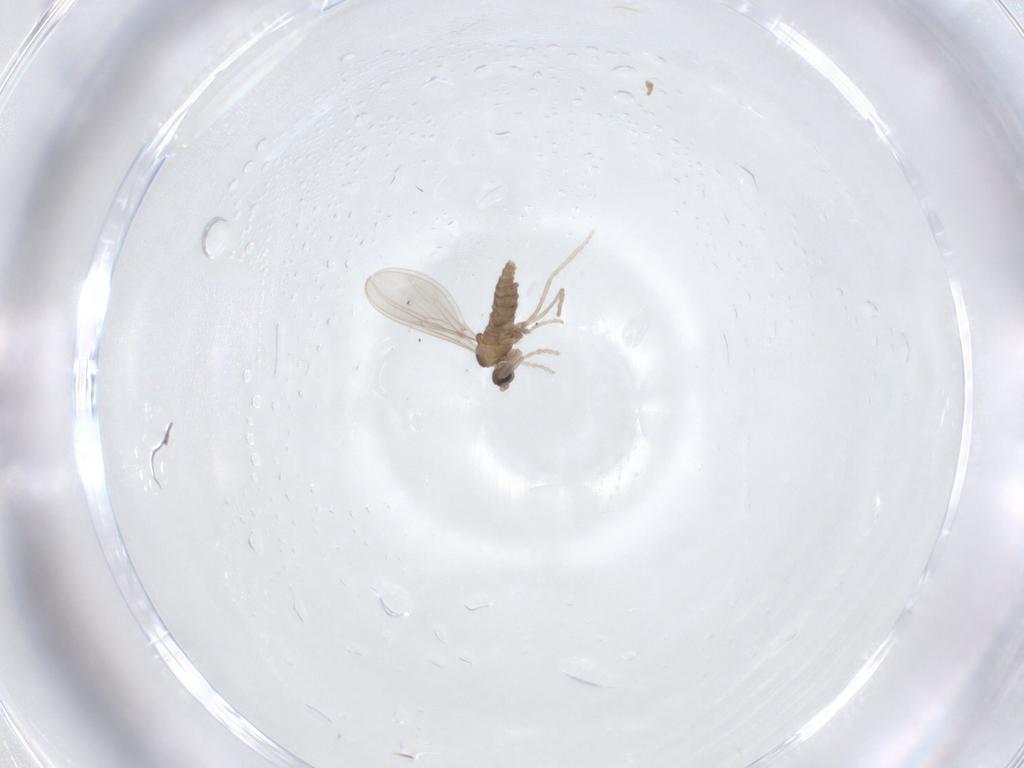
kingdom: Animalia
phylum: Arthropoda
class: Insecta
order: Diptera
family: Cecidomyiidae
